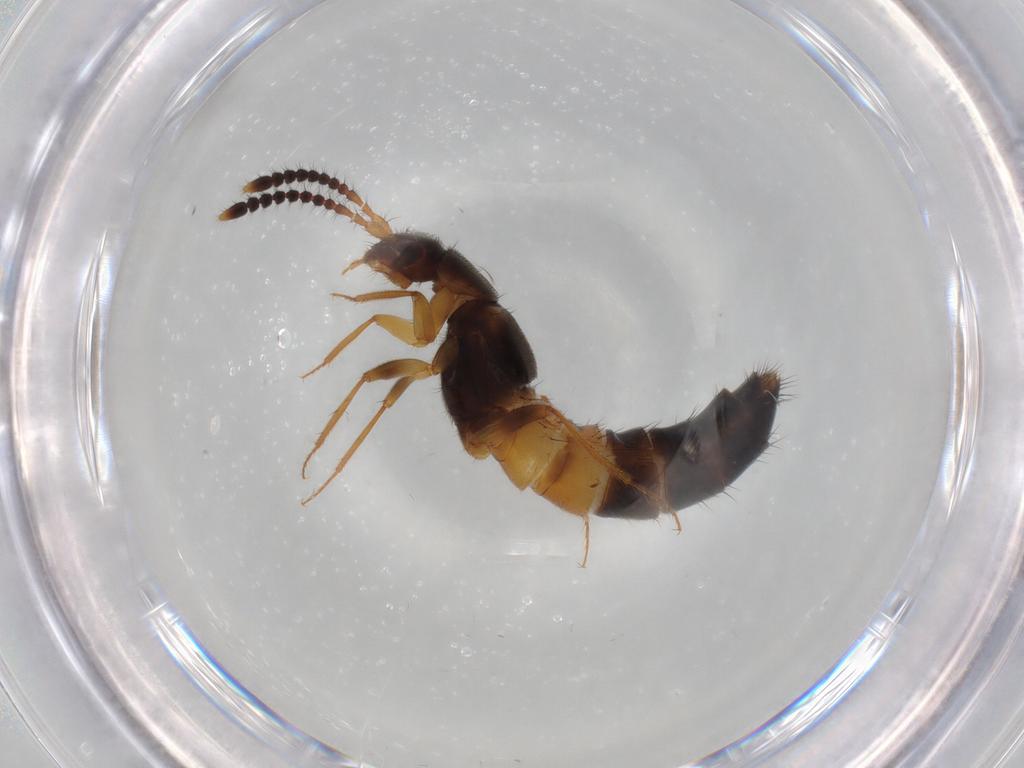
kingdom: Animalia
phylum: Arthropoda
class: Insecta
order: Coleoptera
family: Staphylinidae
